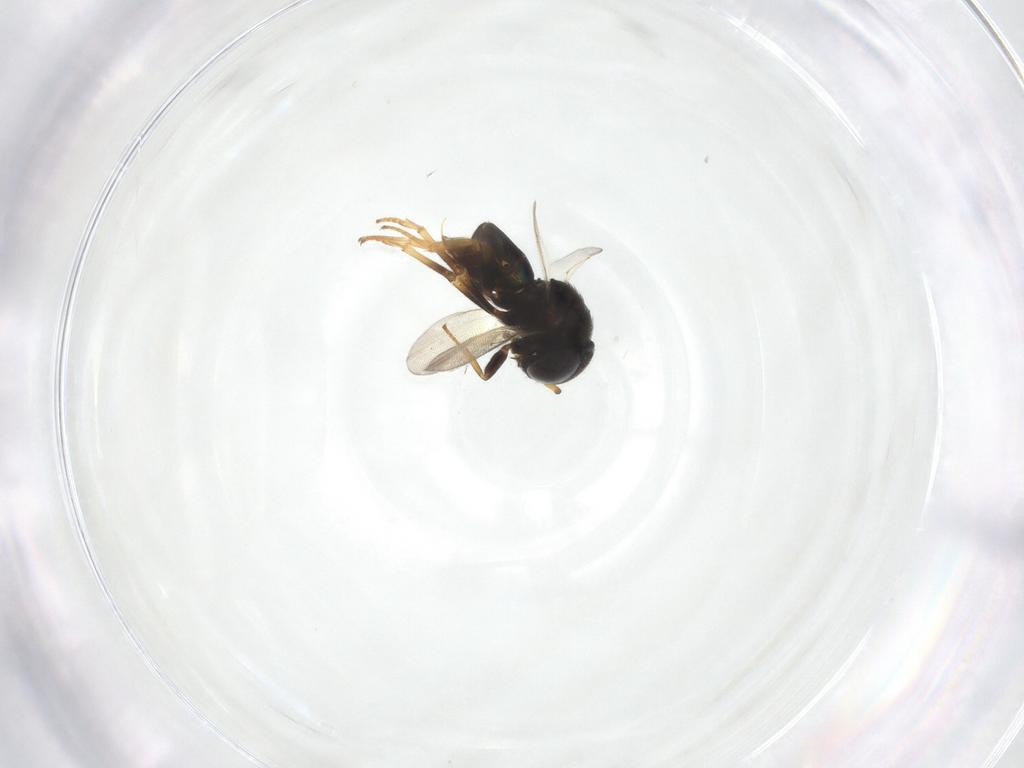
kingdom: Animalia
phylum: Arthropoda
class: Insecta
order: Hymenoptera
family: Encyrtidae
